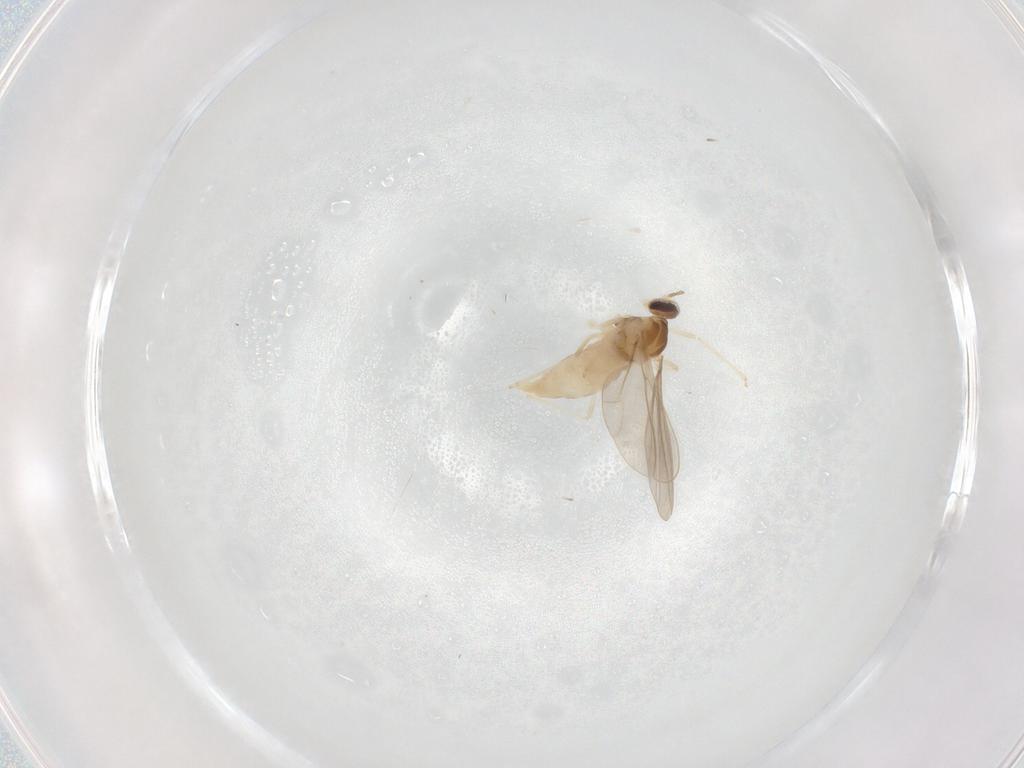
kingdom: Animalia
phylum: Arthropoda
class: Insecta
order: Diptera
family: Cecidomyiidae
